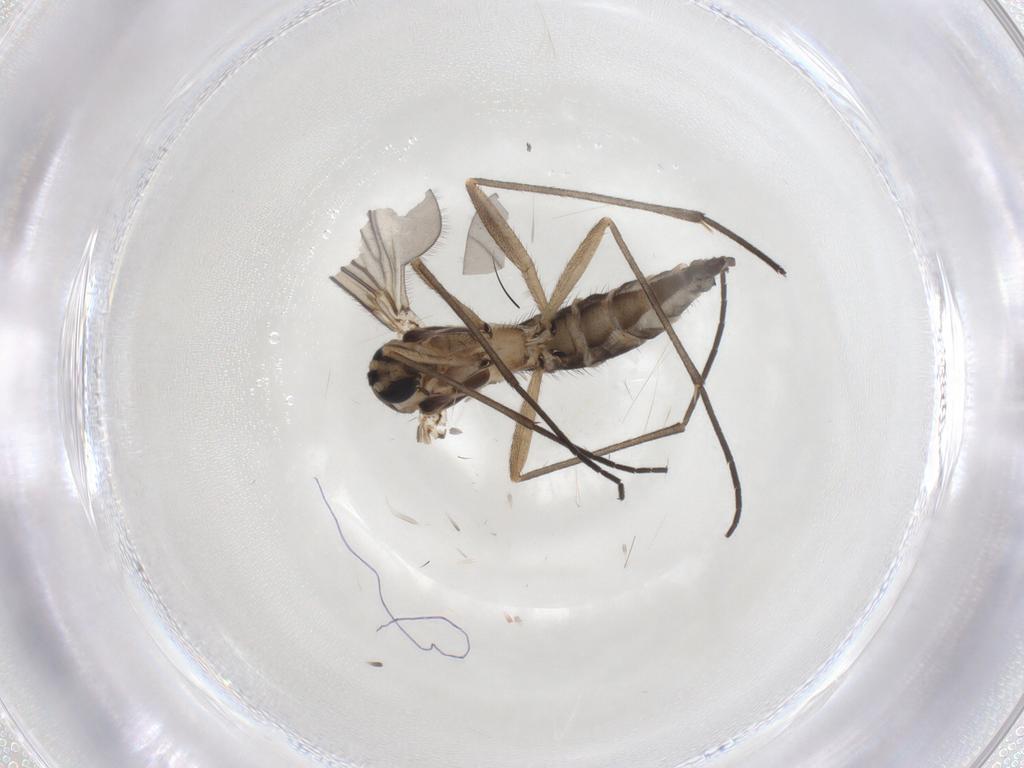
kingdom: Animalia
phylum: Arthropoda
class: Insecta
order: Diptera
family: Sciaridae
